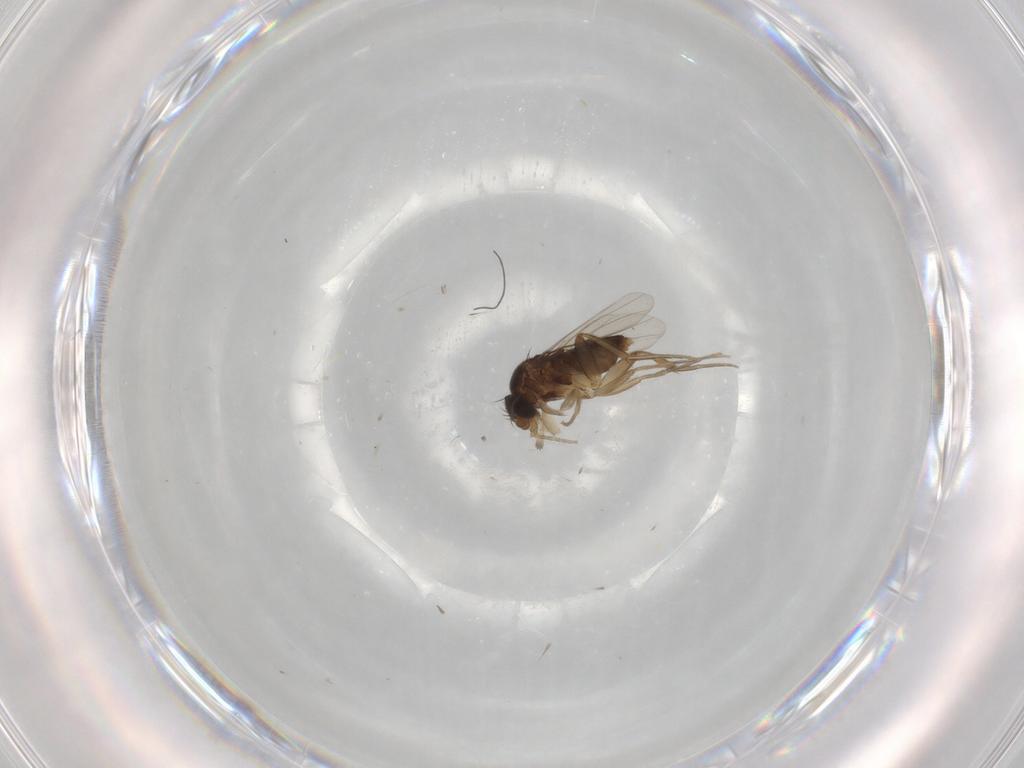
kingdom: Animalia
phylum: Arthropoda
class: Insecta
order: Diptera
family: Phoridae
